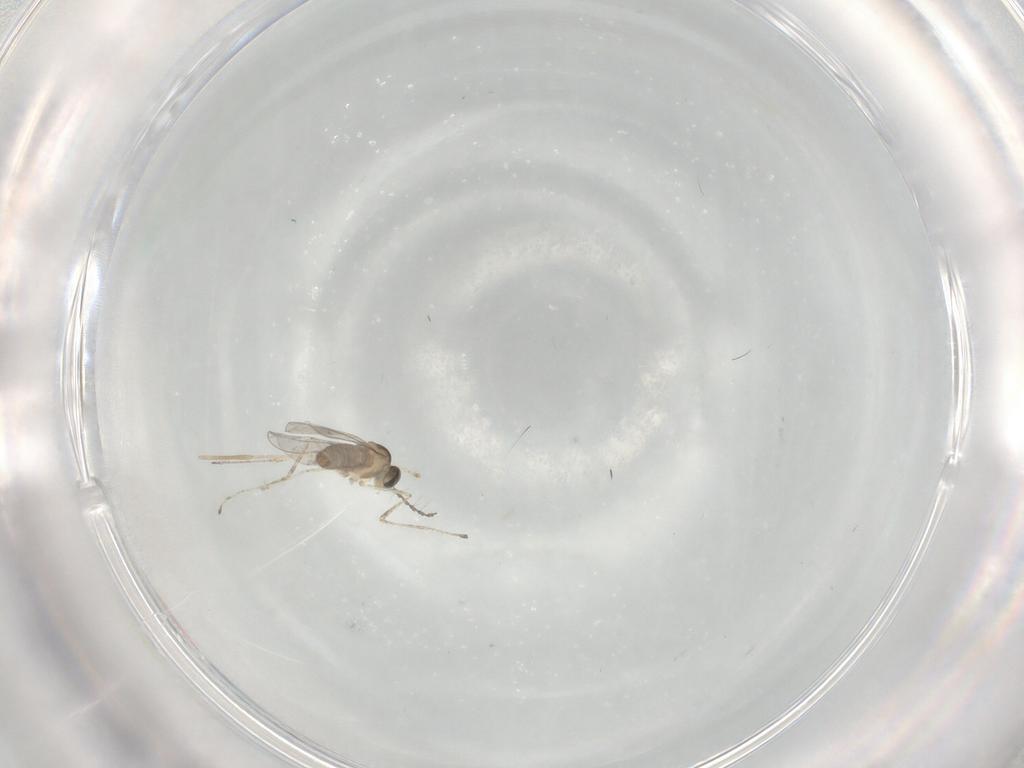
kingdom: Animalia
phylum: Arthropoda
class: Insecta
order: Diptera
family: Cecidomyiidae
